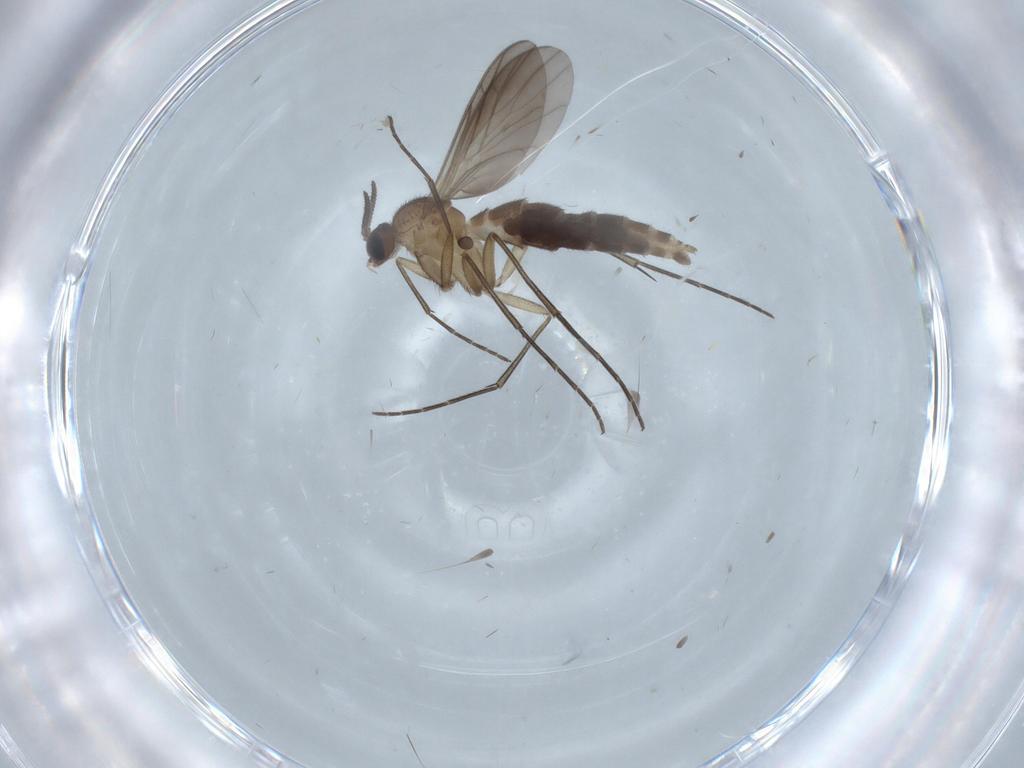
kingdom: Animalia
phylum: Arthropoda
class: Insecta
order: Diptera
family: Keroplatidae
